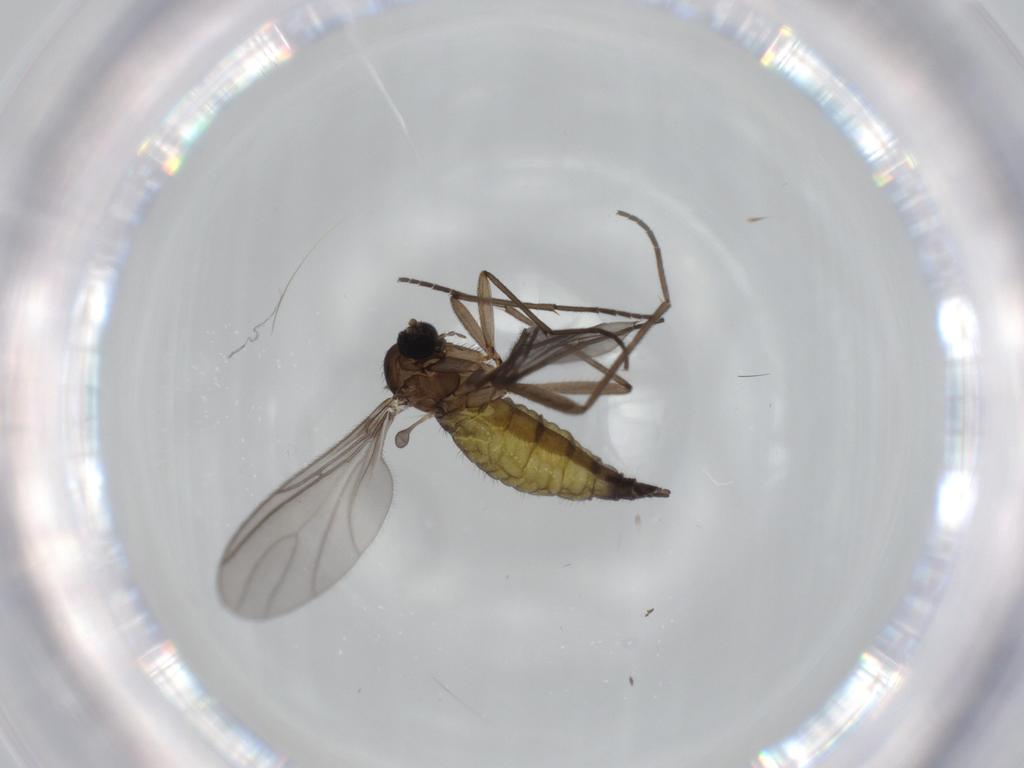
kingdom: Animalia
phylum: Arthropoda
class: Insecta
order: Diptera
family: Sciaridae
